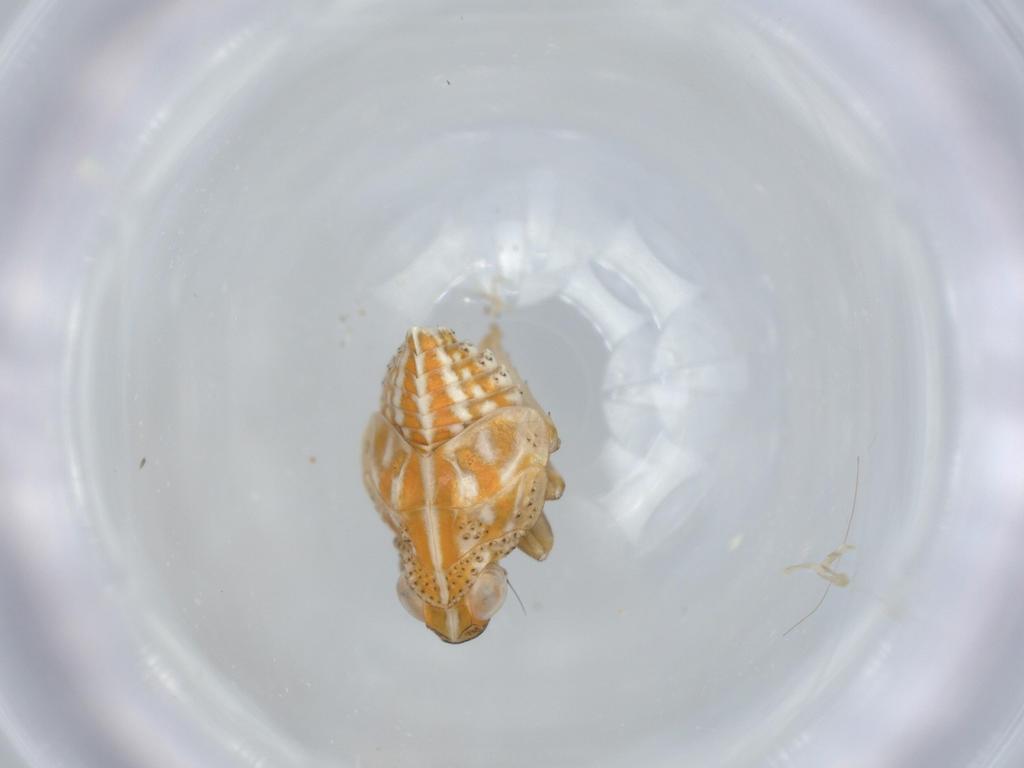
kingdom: Animalia
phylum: Arthropoda
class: Insecta
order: Hemiptera
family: Issidae
